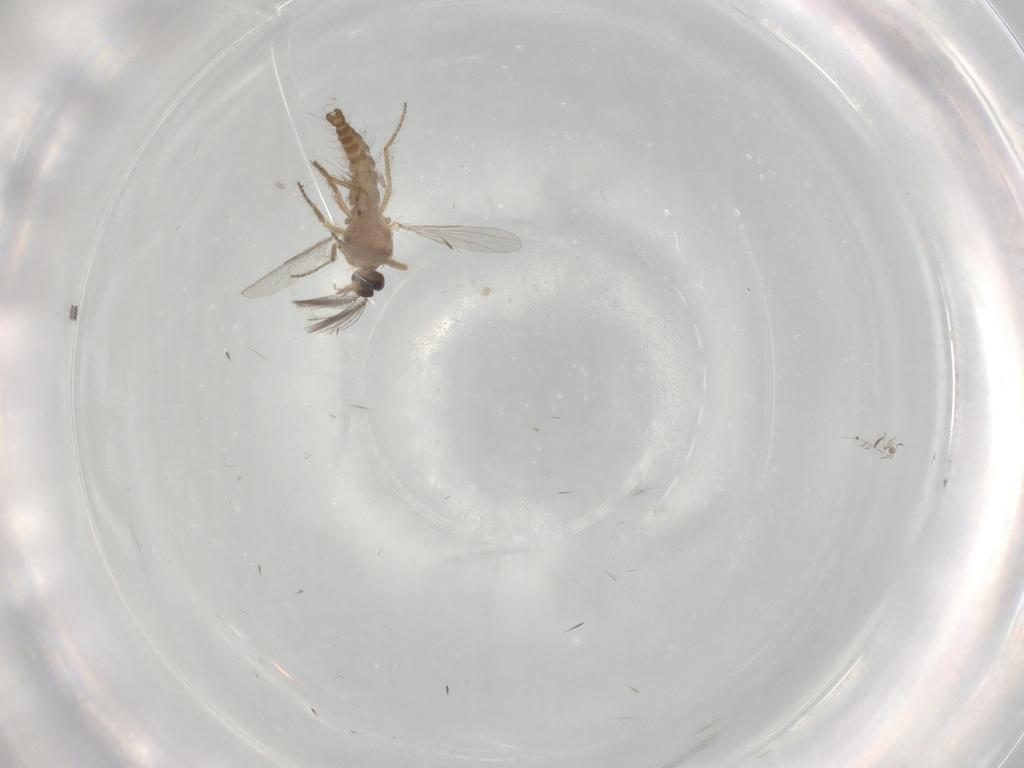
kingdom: Animalia
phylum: Arthropoda
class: Insecta
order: Diptera
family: Ceratopogonidae
